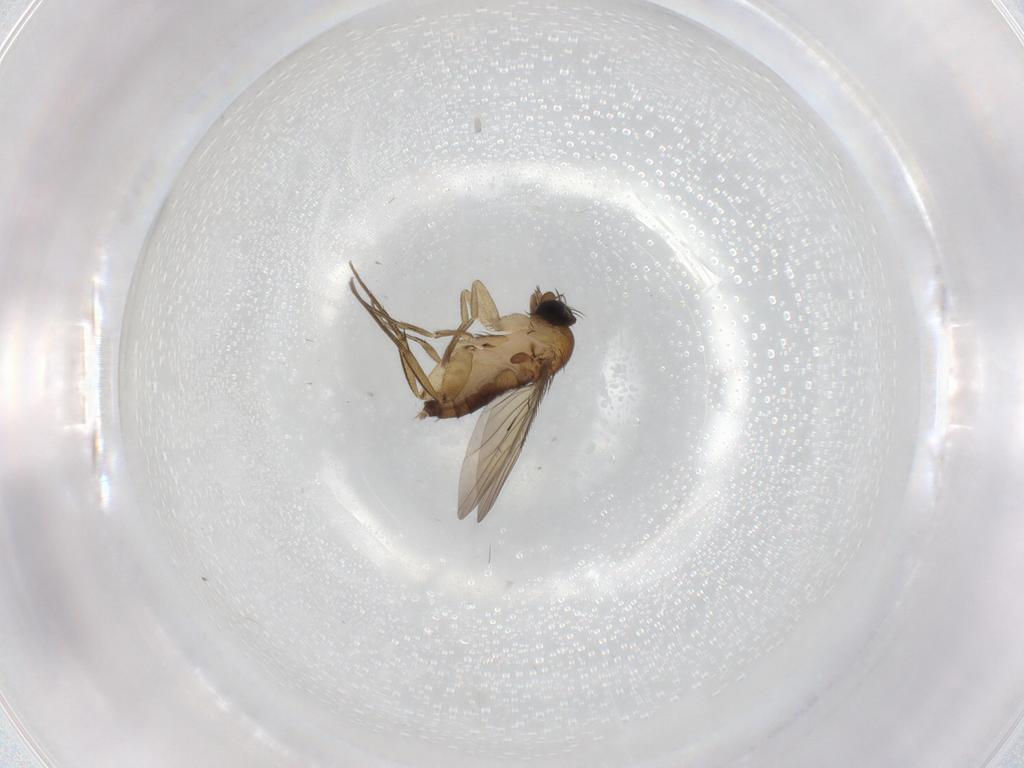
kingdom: Animalia
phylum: Arthropoda
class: Insecta
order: Diptera
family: Phoridae
